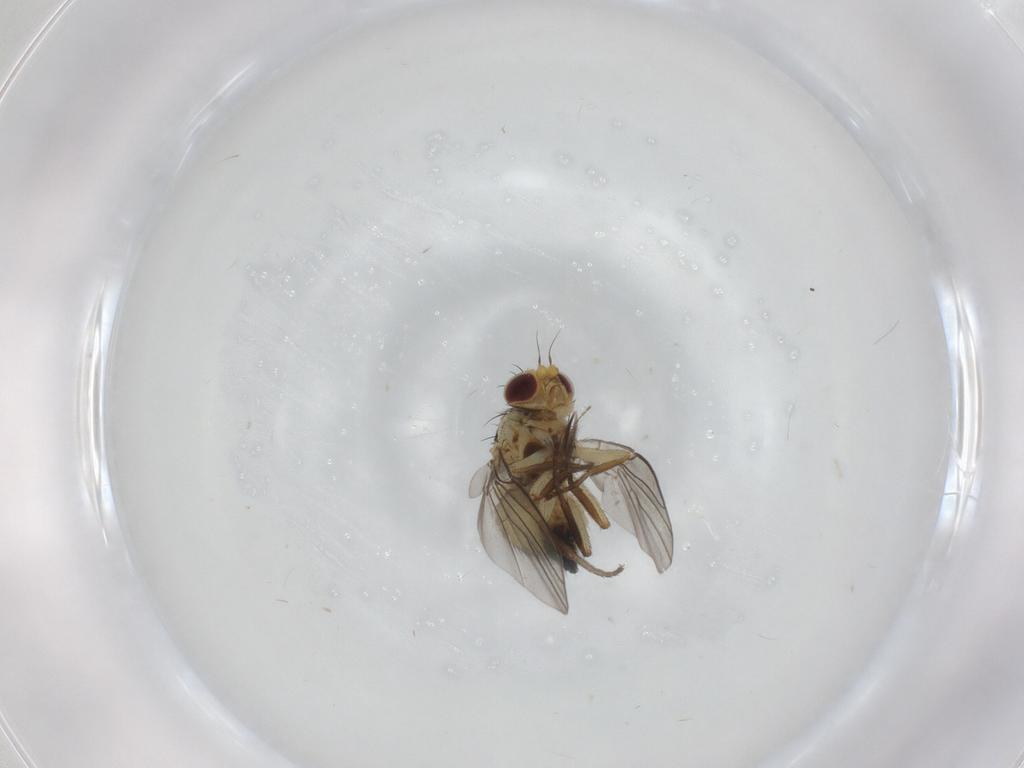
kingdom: Animalia
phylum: Arthropoda
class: Insecta
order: Diptera
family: Agromyzidae
